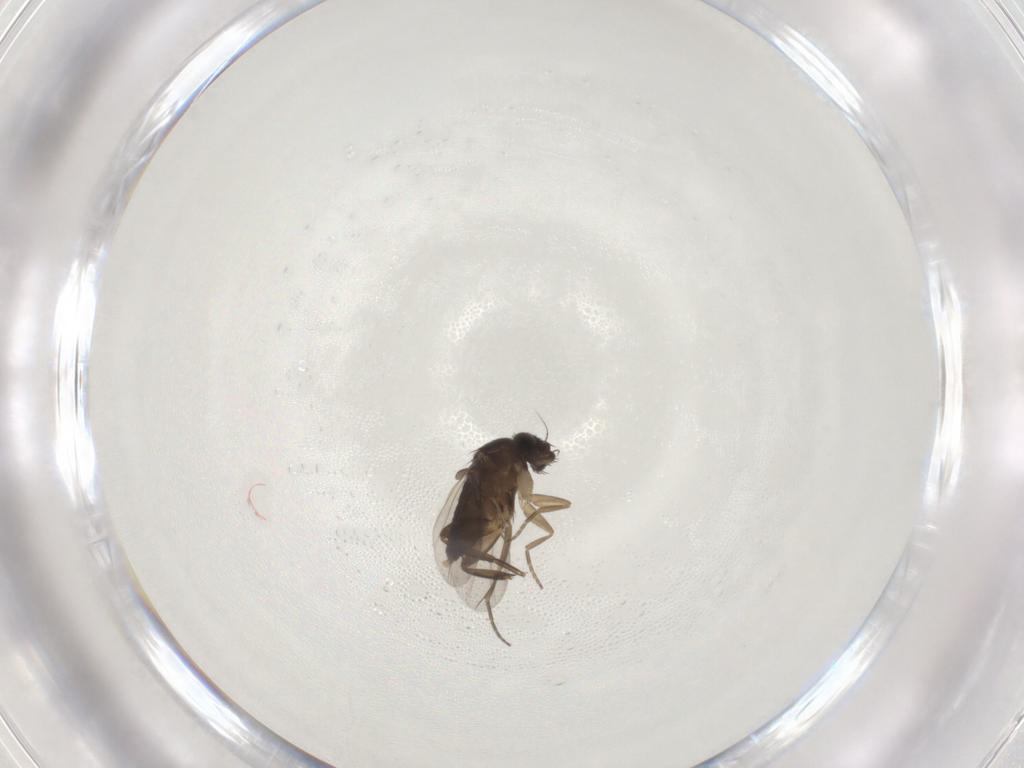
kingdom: Animalia
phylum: Arthropoda
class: Insecta
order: Diptera
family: Phoridae
